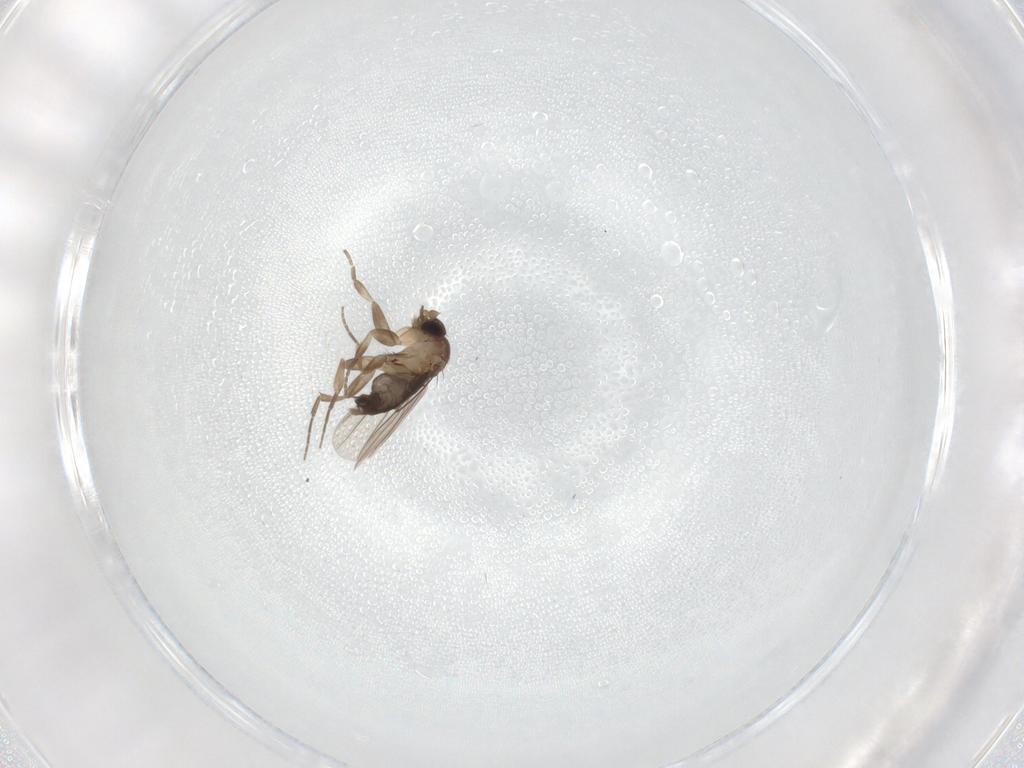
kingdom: Animalia
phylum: Arthropoda
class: Insecta
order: Diptera
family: Phoridae
